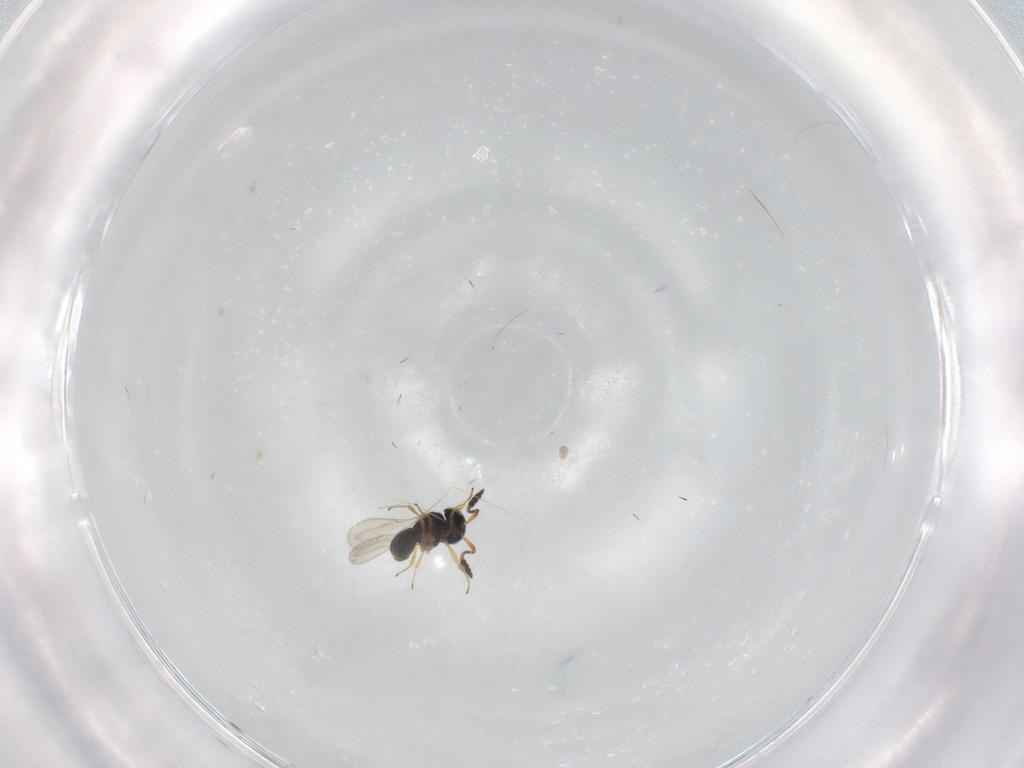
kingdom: Animalia
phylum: Arthropoda
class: Insecta
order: Hymenoptera
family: Scelionidae
